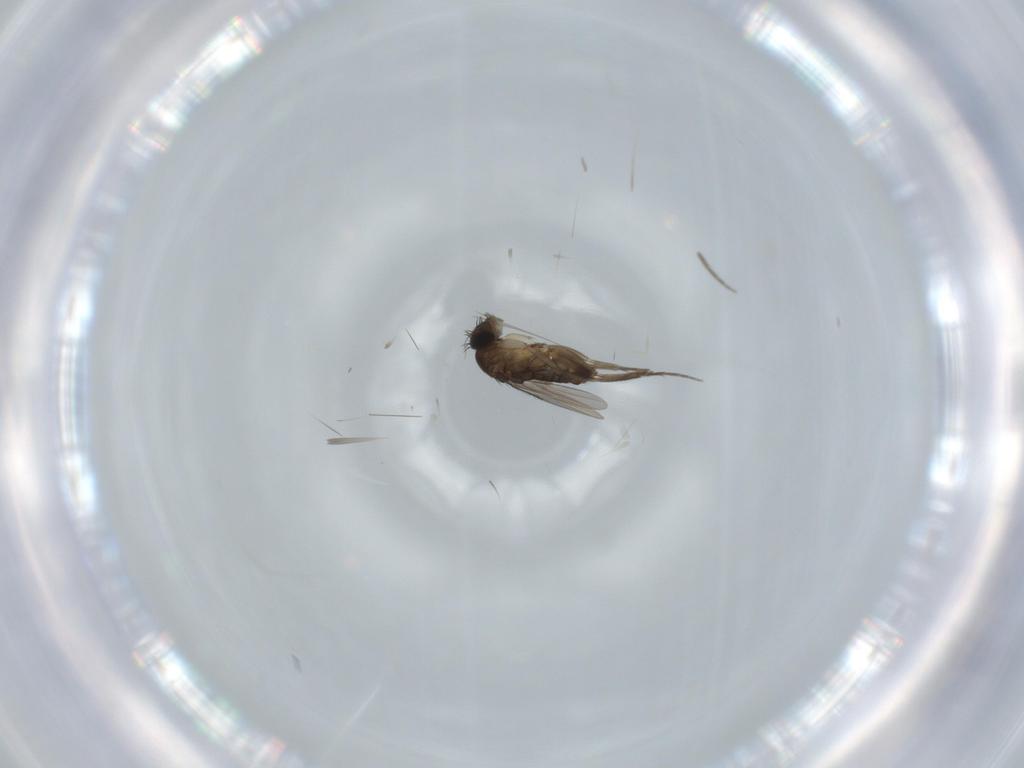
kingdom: Animalia
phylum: Arthropoda
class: Insecta
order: Diptera
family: Phoridae
